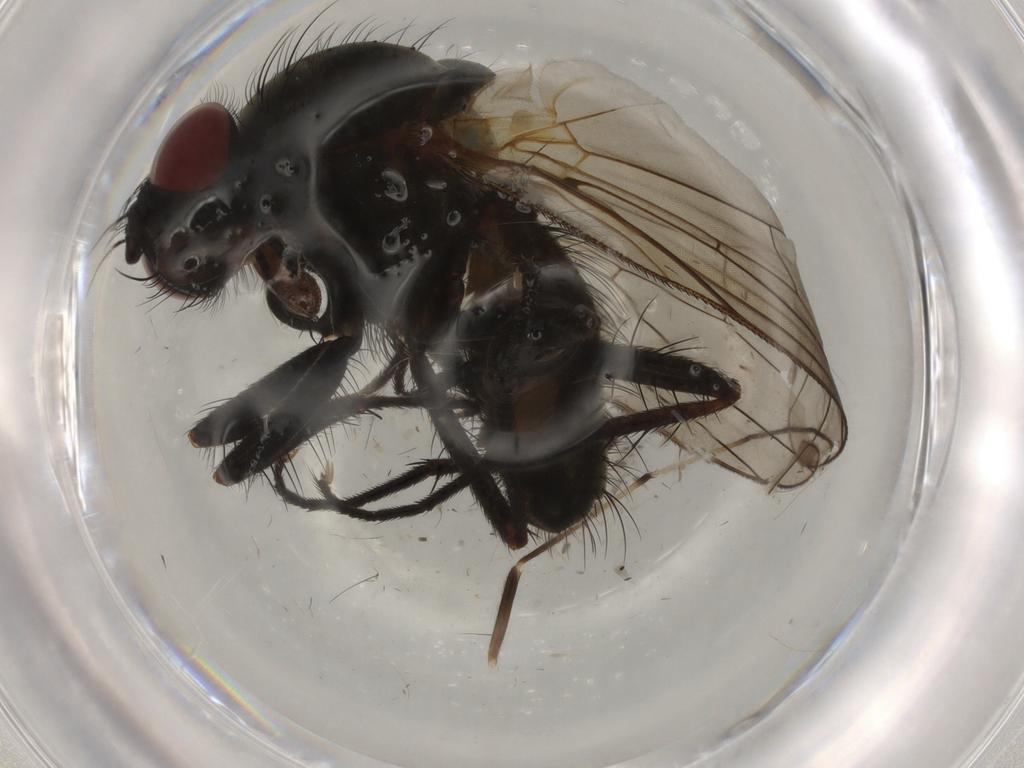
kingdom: Animalia
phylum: Arthropoda
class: Insecta
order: Diptera
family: Anthomyiidae
